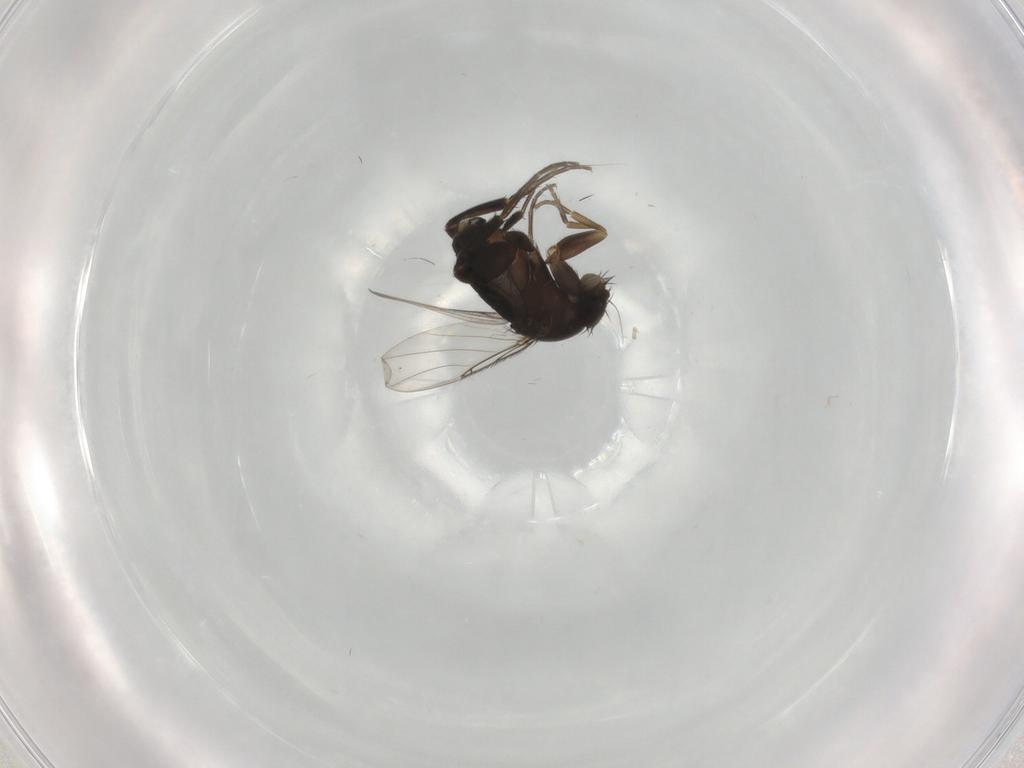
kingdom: Animalia
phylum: Arthropoda
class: Insecta
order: Diptera
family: Phoridae
